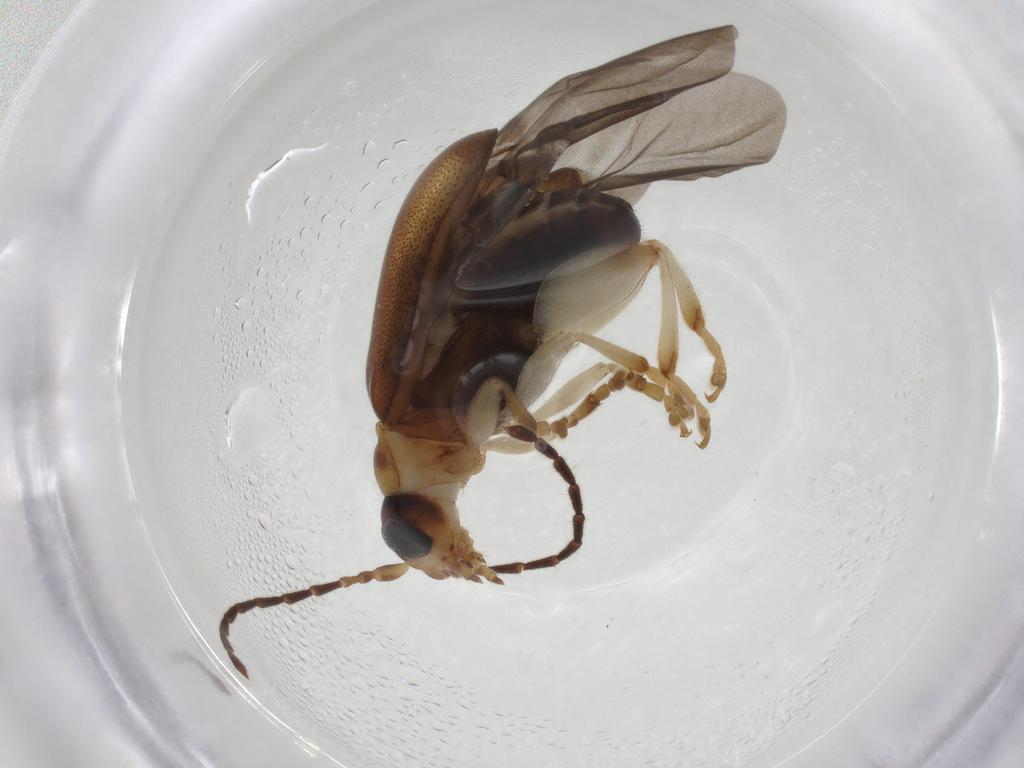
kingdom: Animalia
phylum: Arthropoda
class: Insecta
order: Coleoptera
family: Chrysomelidae
